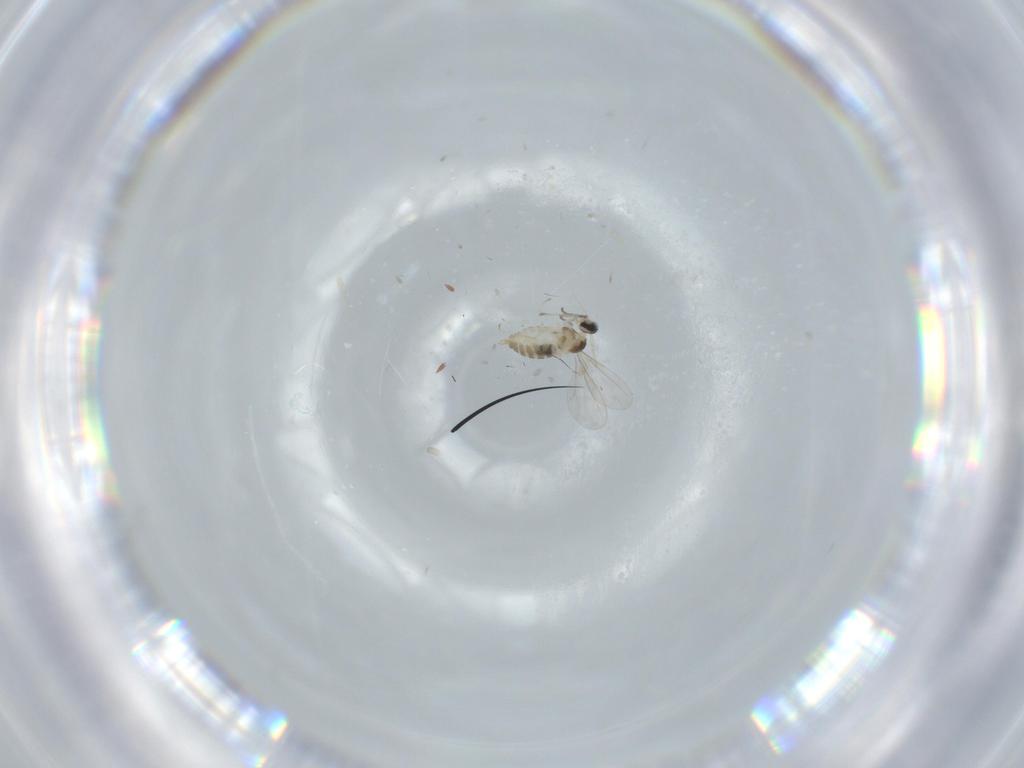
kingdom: Animalia
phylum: Arthropoda
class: Insecta
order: Diptera
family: Cecidomyiidae
